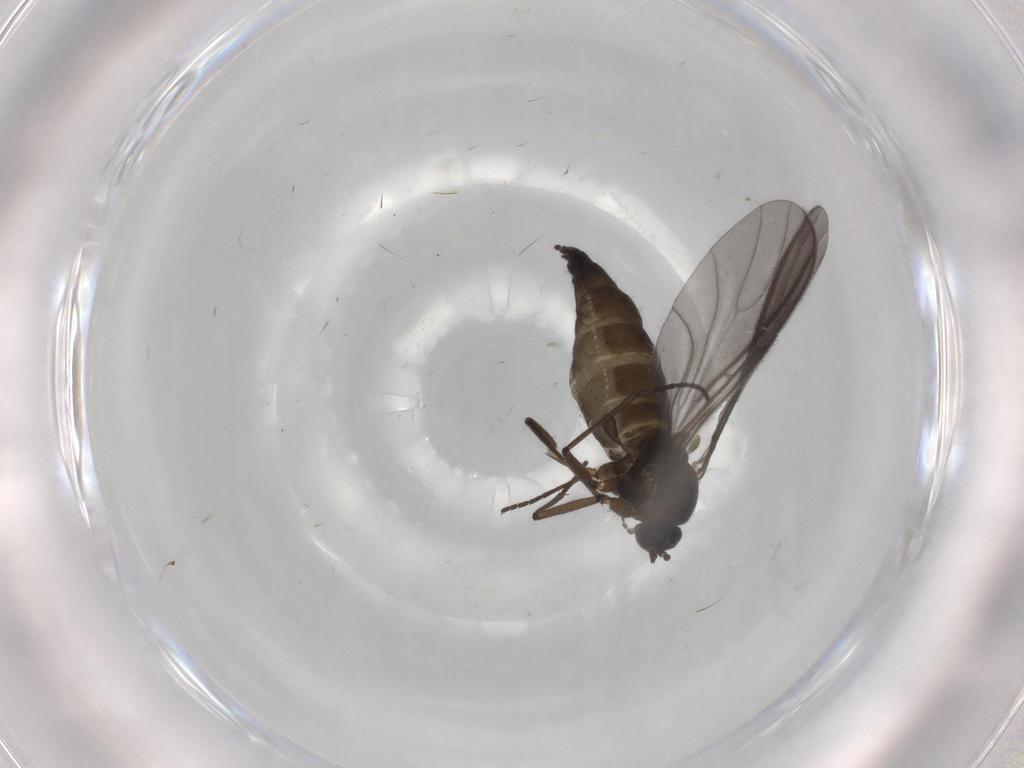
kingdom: Animalia
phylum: Arthropoda
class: Insecta
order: Diptera
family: Sciaridae
